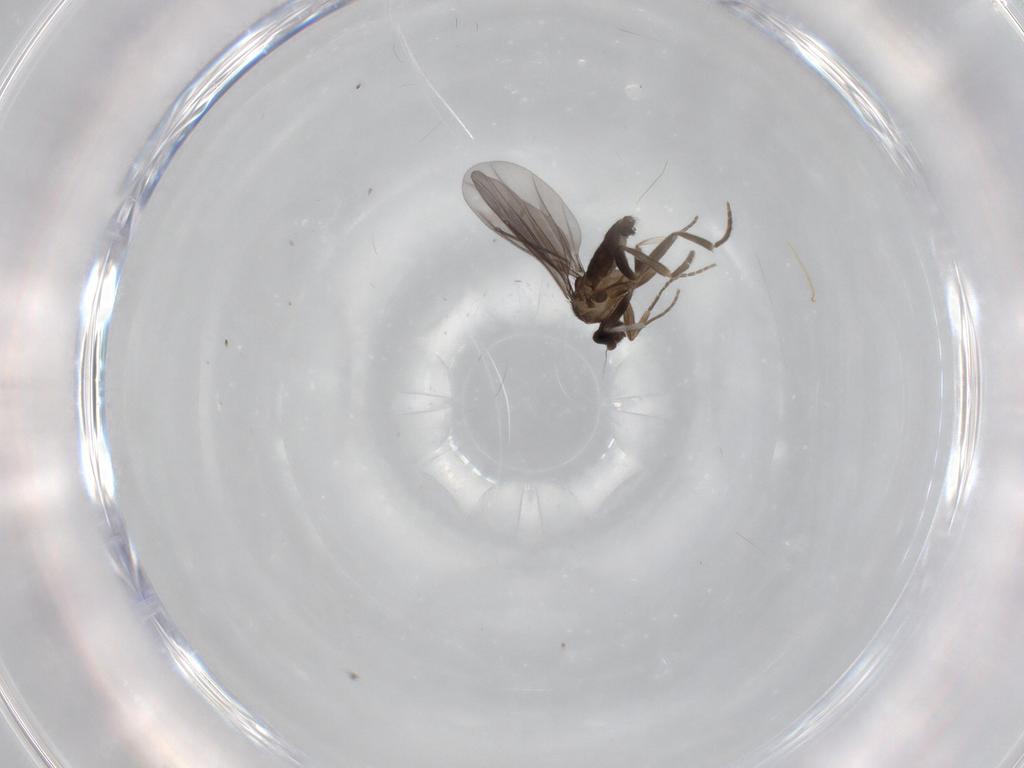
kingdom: Animalia
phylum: Arthropoda
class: Insecta
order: Diptera
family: Phoridae
